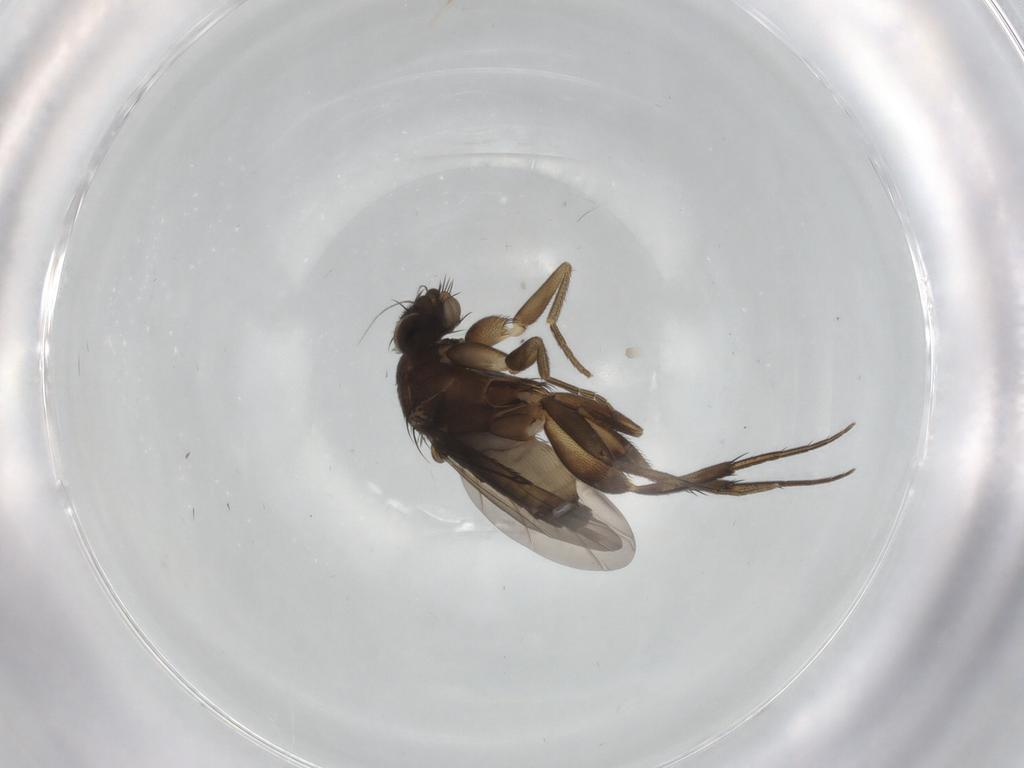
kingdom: Animalia
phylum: Arthropoda
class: Insecta
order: Diptera
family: Phoridae
